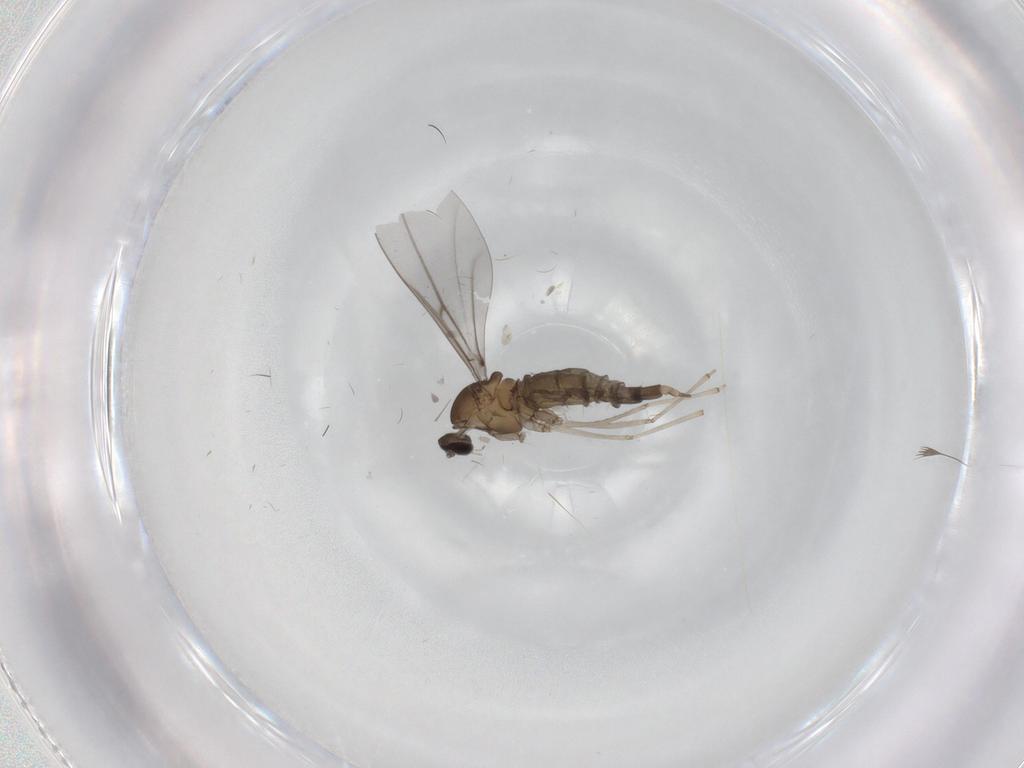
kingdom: Animalia
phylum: Arthropoda
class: Insecta
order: Diptera
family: Cecidomyiidae
